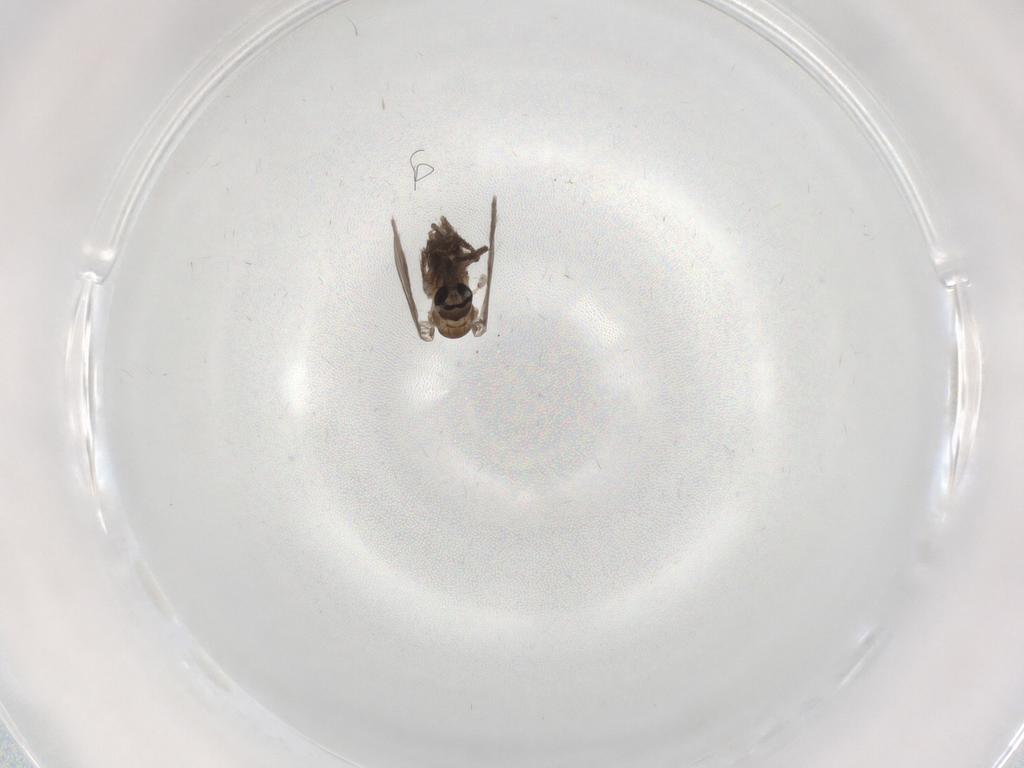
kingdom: Animalia
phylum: Arthropoda
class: Insecta
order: Diptera
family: Psychodidae
